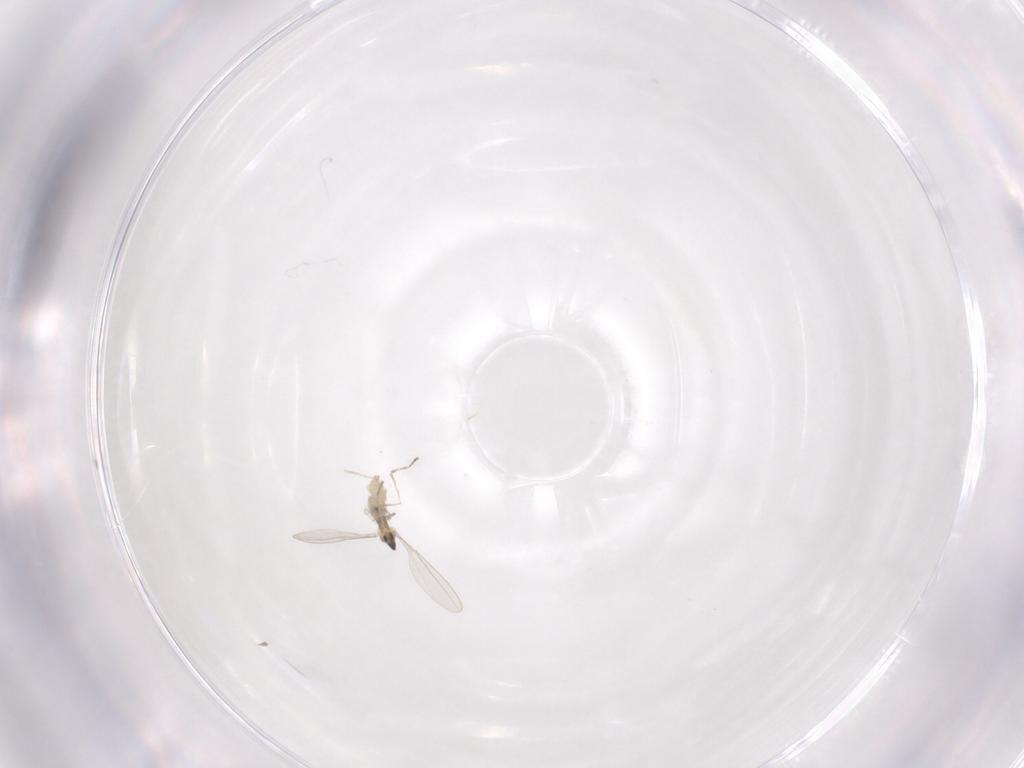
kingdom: Animalia
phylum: Arthropoda
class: Insecta
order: Diptera
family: Cecidomyiidae
